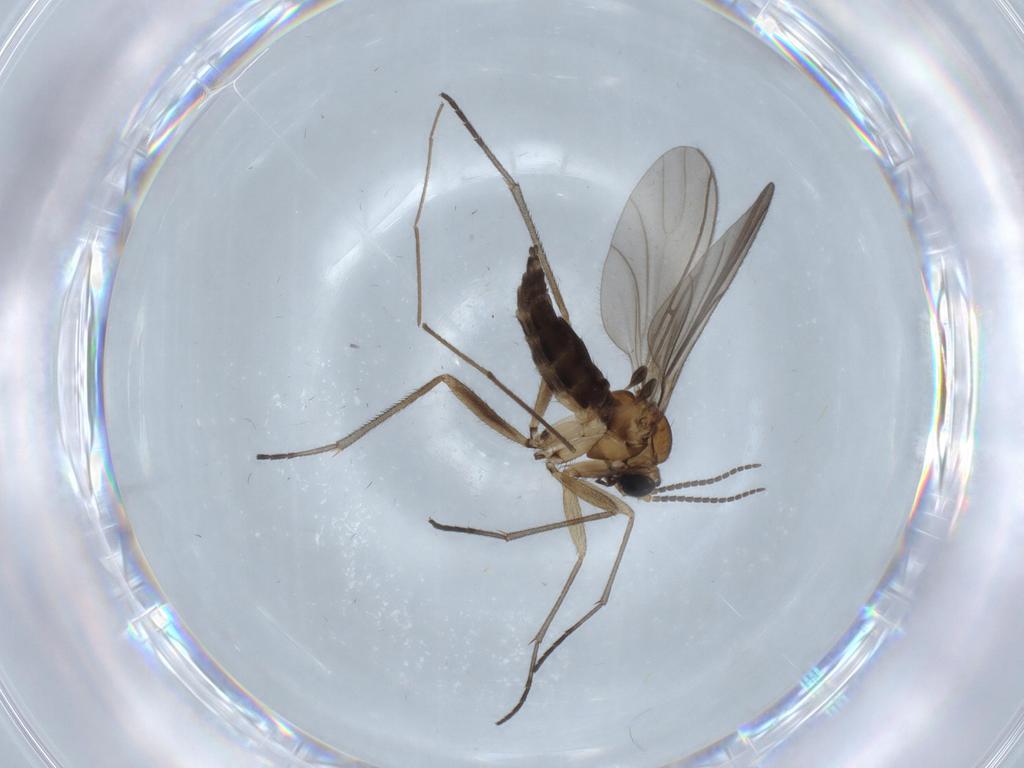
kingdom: Animalia
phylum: Arthropoda
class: Insecta
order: Diptera
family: Sciaridae
